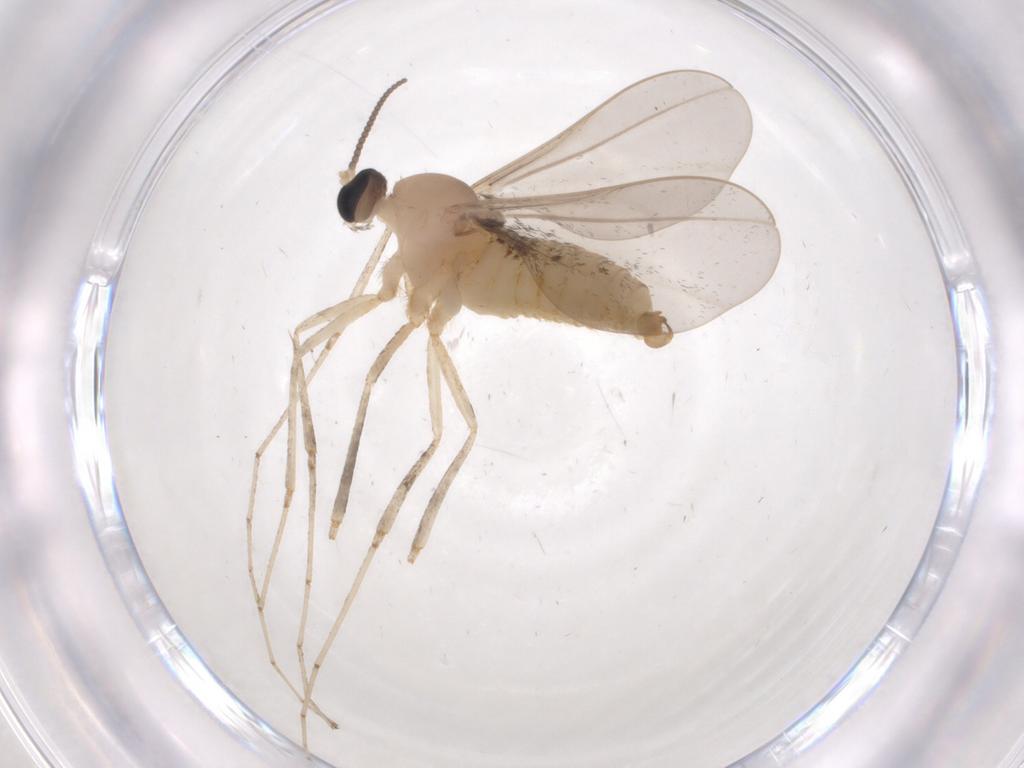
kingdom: Animalia
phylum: Arthropoda
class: Insecta
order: Diptera
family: Cecidomyiidae
